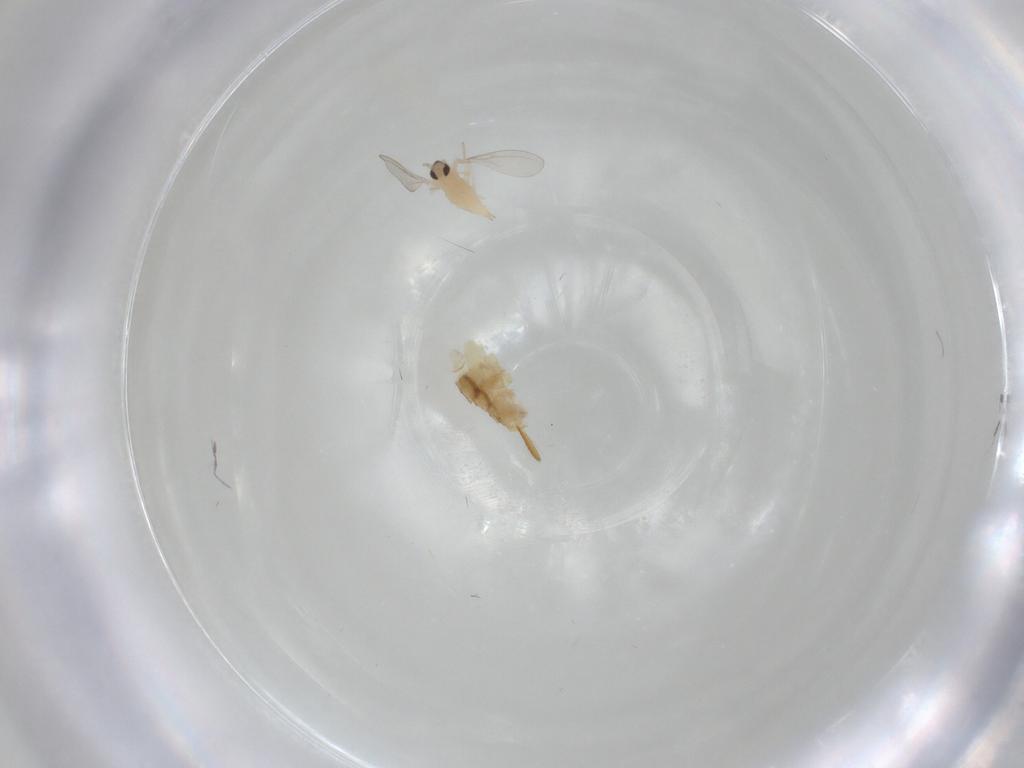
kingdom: Animalia
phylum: Arthropoda
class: Insecta
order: Diptera
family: Cecidomyiidae
